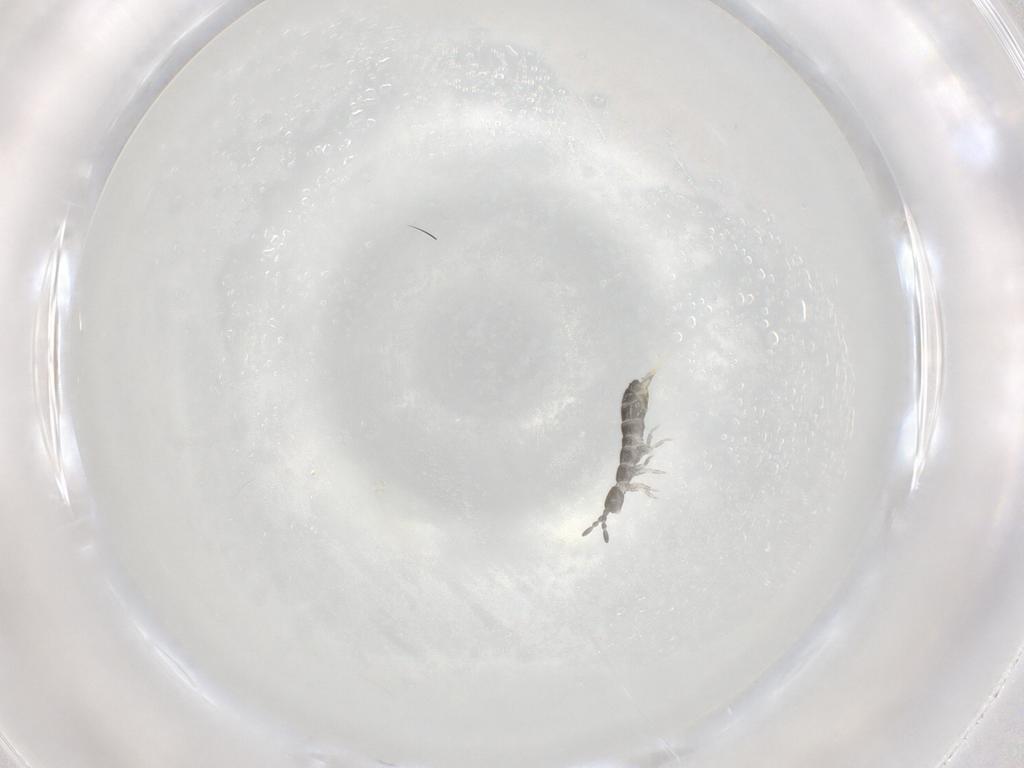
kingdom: Animalia
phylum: Arthropoda
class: Collembola
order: Entomobryomorpha
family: Isotomidae
